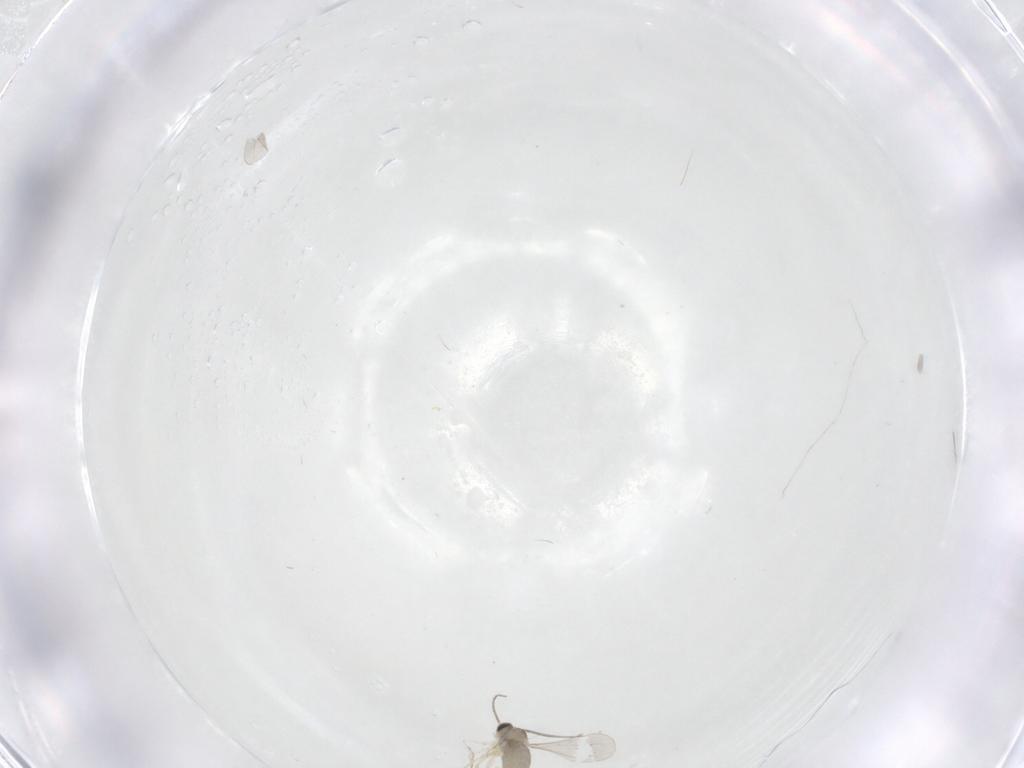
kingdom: Animalia
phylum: Arthropoda
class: Insecta
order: Diptera
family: Cecidomyiidae
